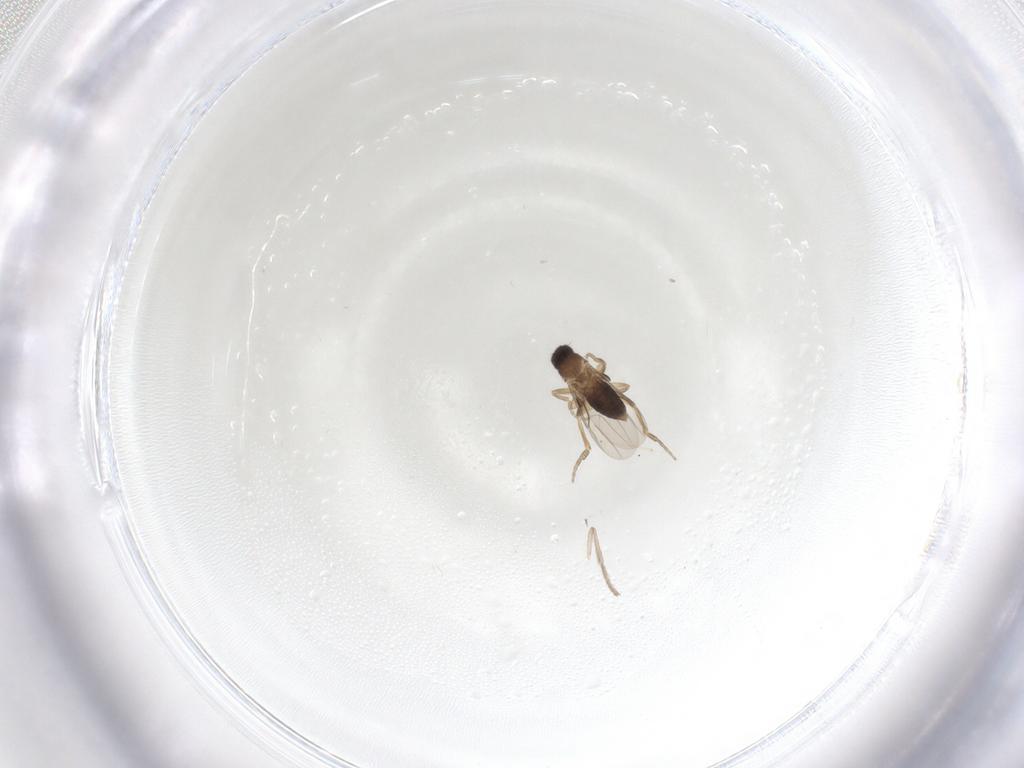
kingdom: Animalia
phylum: Arthropoda
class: Insecta
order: Diptera
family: Phoridae
